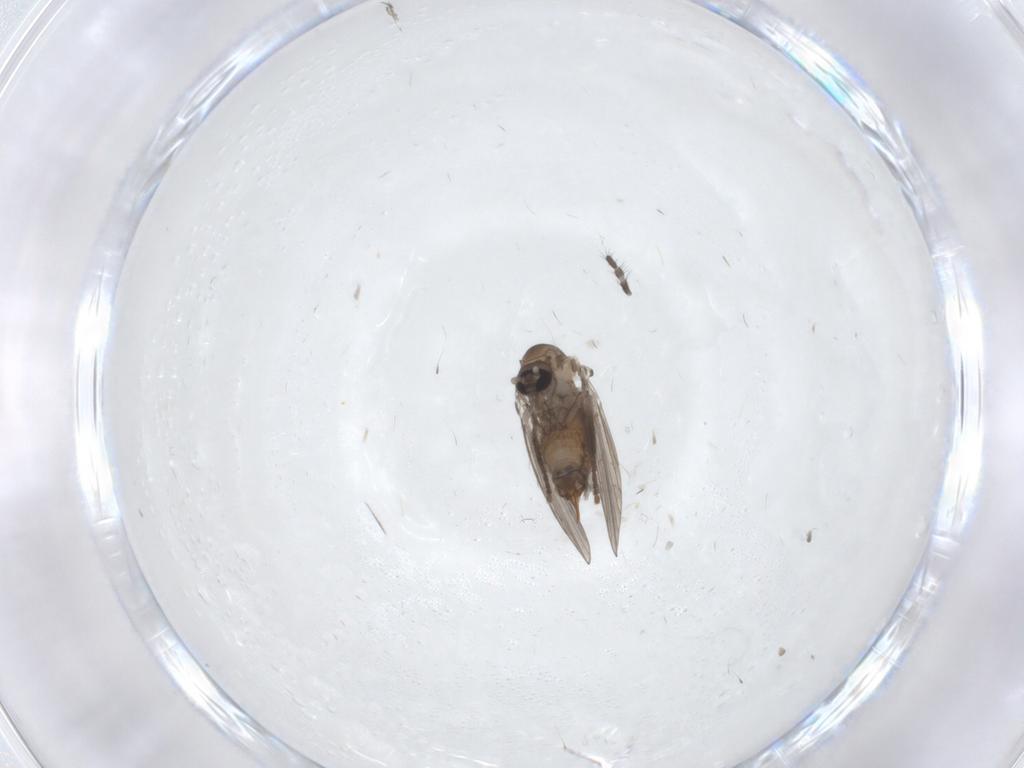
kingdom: Animalia
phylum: Arthropoda
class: Insecta
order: Diptera
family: Limoniidae
